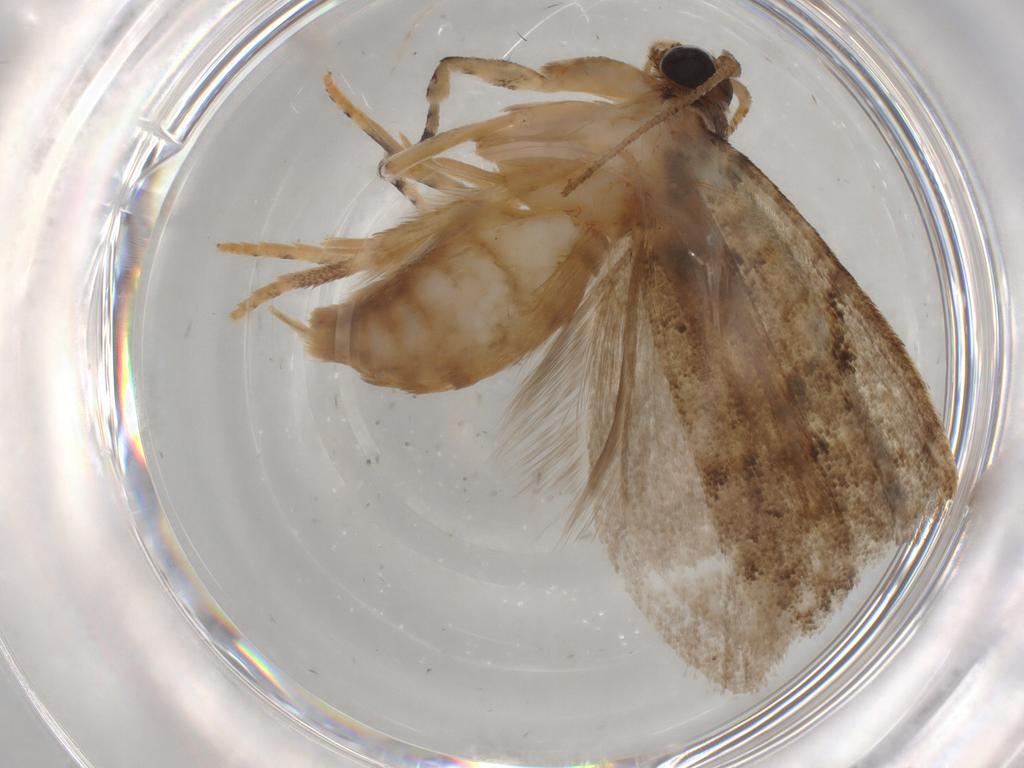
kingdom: Animalia
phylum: Arthropoda
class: Insecta
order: Lepidoptera
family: Gelechiidae
